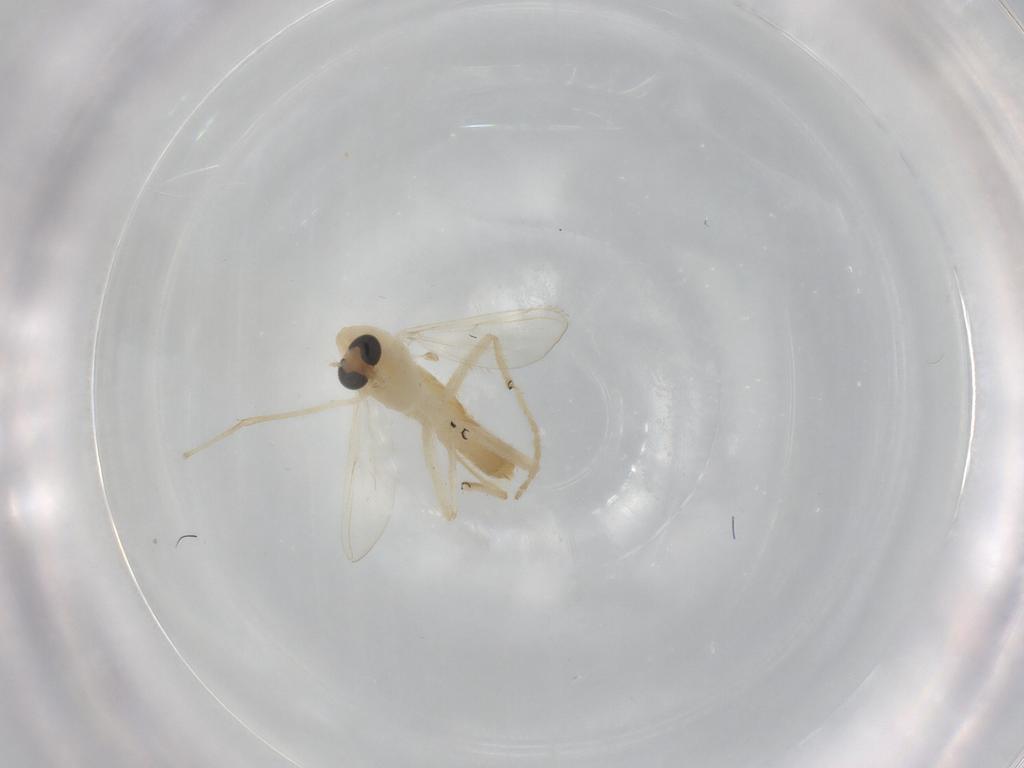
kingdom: Animalia
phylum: Arthropoda
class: Insecta
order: Diptera
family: Chironomidae
